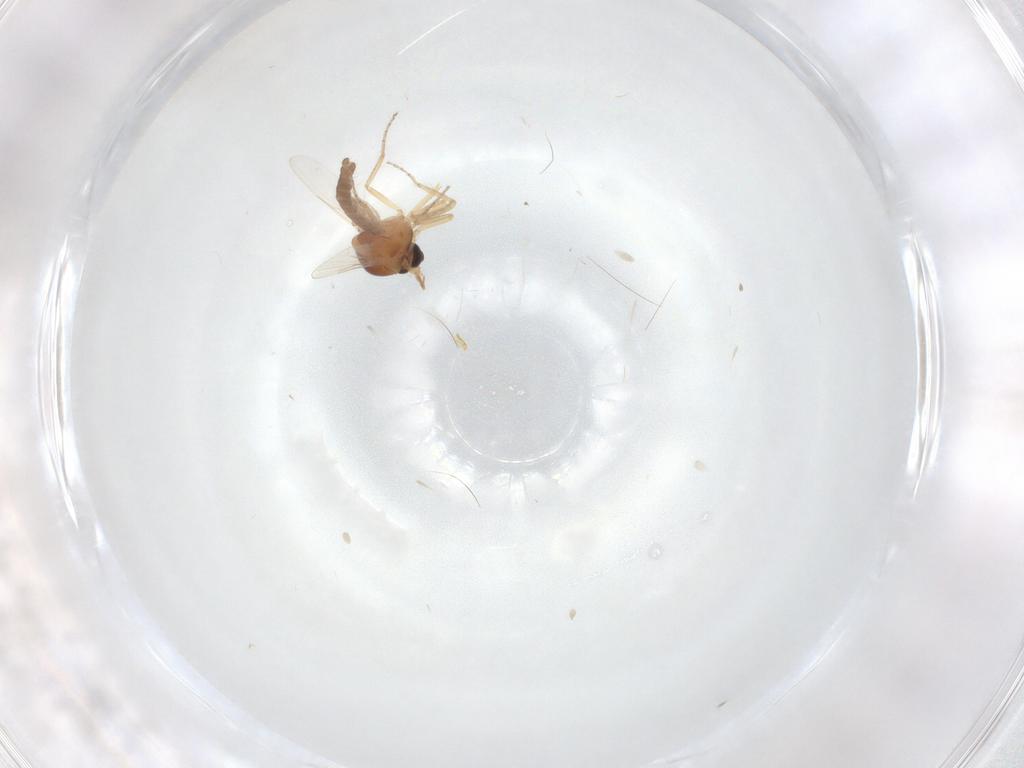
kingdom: Animalia
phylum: Arthropoda
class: Insecta
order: Diptera
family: Ceratopogonidae
